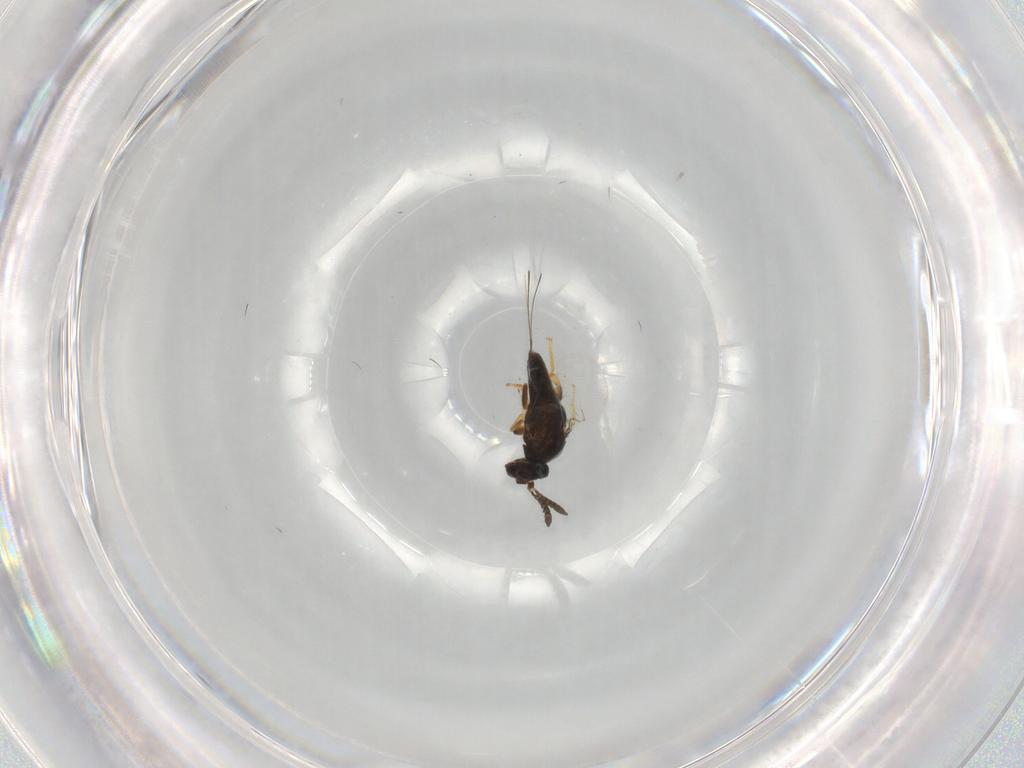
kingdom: Animalia
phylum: Arthropoda
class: Insecta
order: Hymenoptera
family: Agaonidae
